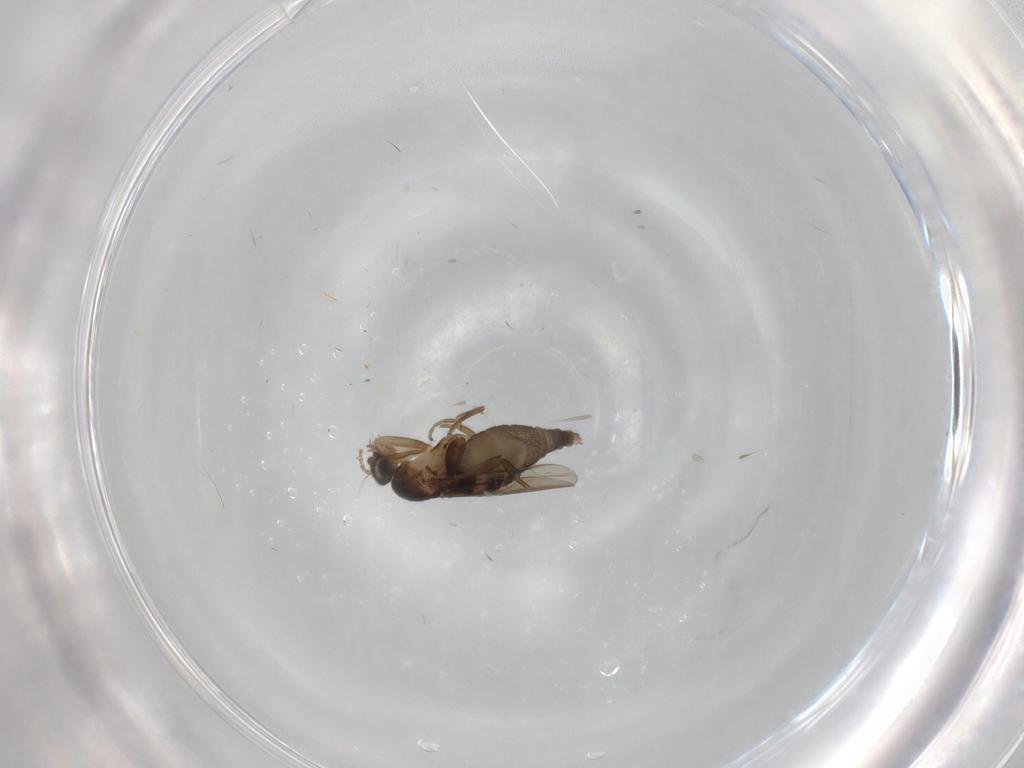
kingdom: Animalia
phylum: Arthropoda
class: Insecta
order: Diptera
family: Phoridae
